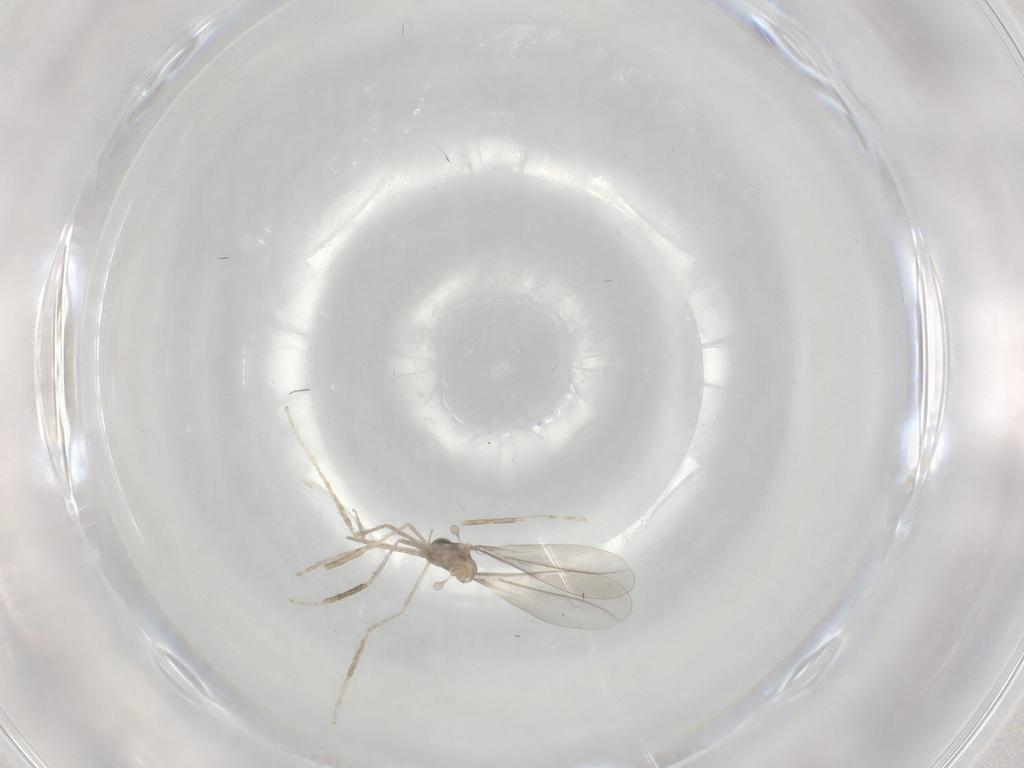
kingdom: Animalia
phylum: Arthropoda
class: Insecta
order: Diptera
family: Cecidomyiidae
